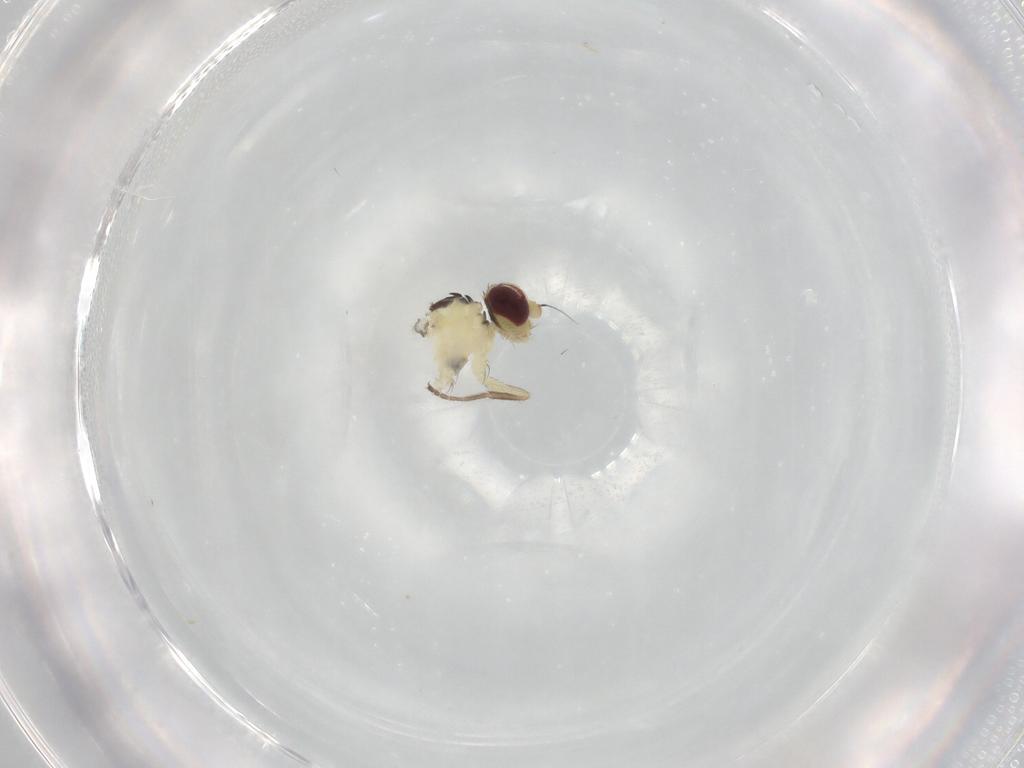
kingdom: Animalia
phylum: Arthropoda
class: Insecta
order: Diptera
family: Agromyzidae
